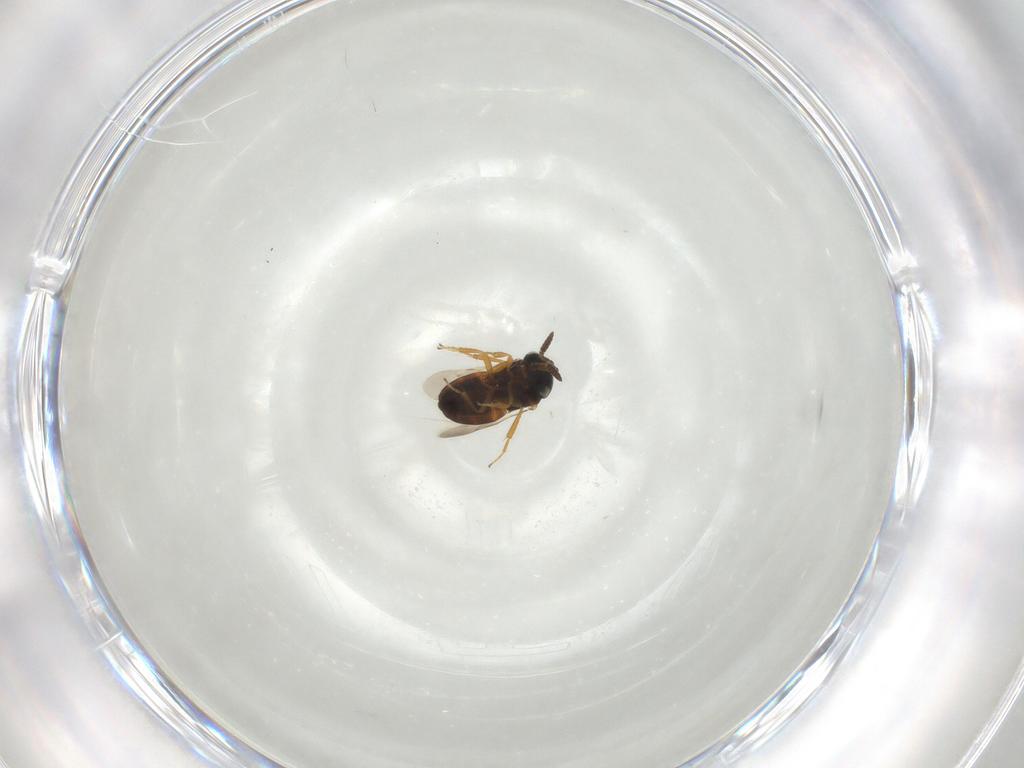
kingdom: Animalia
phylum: Arthropoda
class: Insecta
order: Hymenoptera
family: Scelionidae
